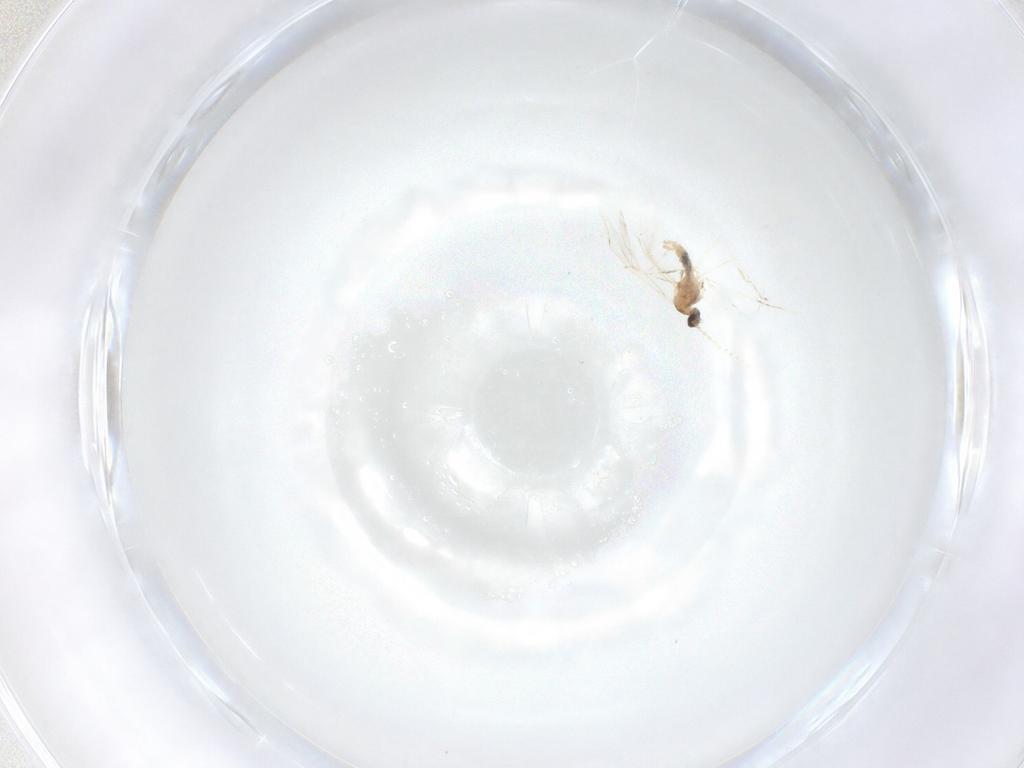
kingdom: Animalia
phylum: Arthropoda
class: Insecta
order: Diptera
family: Cecidomyiidae
